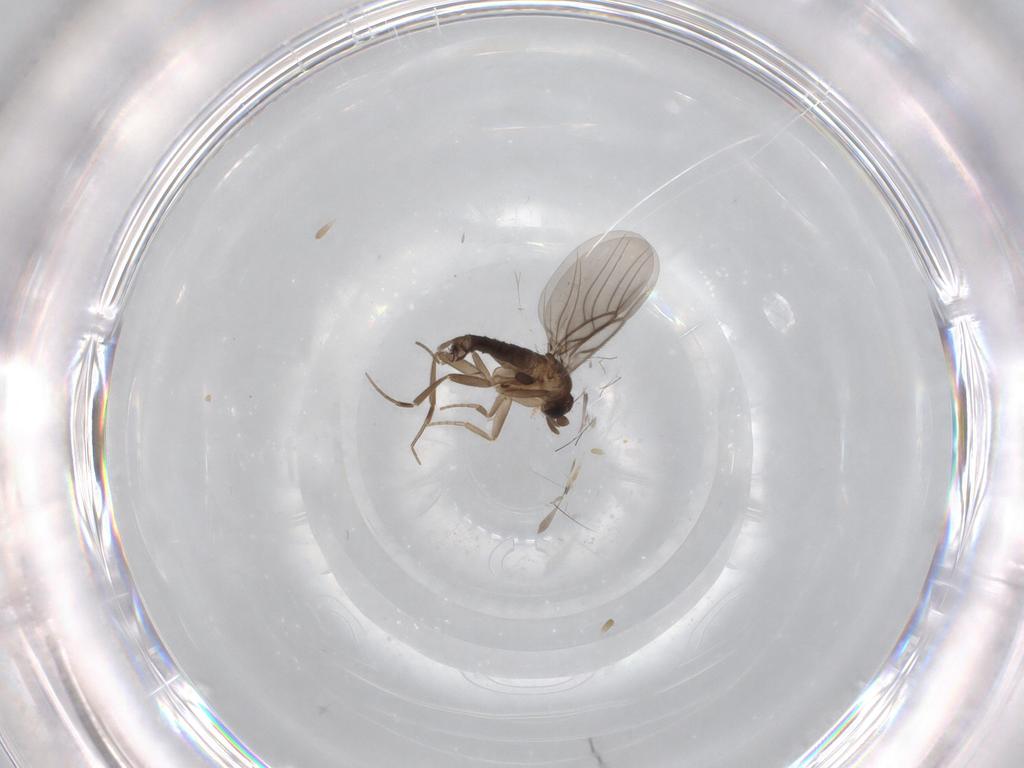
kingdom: Animalia
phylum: Arthropoda
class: Insecta
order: Diptera
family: Phoridae
